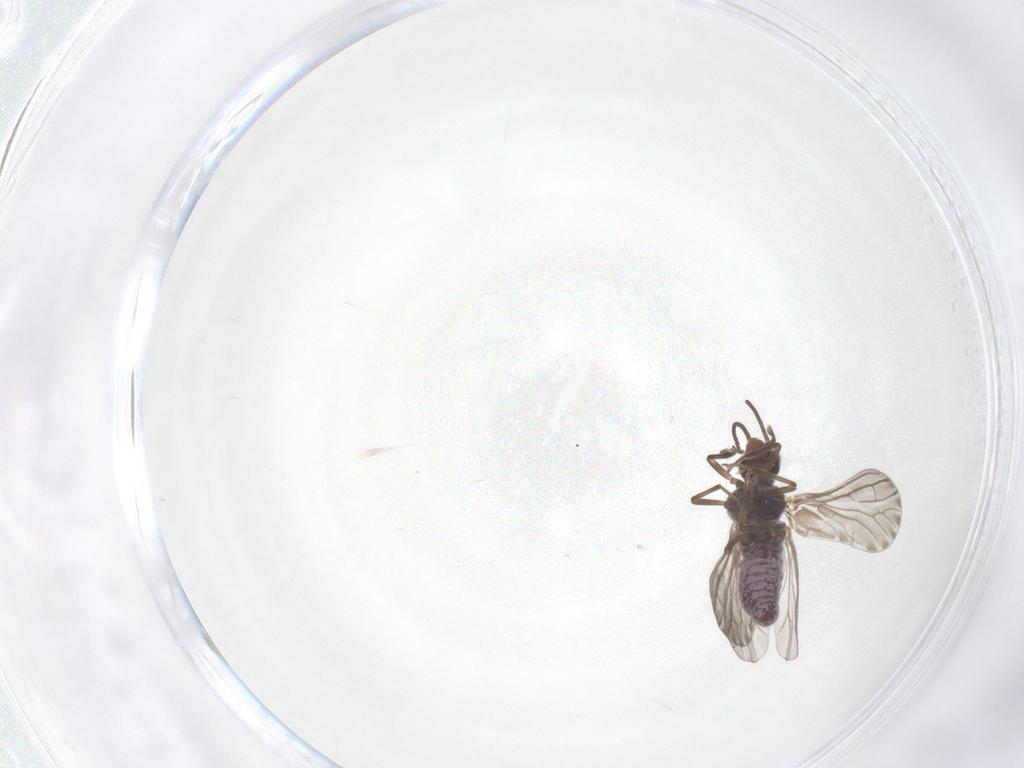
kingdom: Animalia
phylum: Arthropoda
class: Insecta
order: Neuroptera
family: Coniopterygidae
